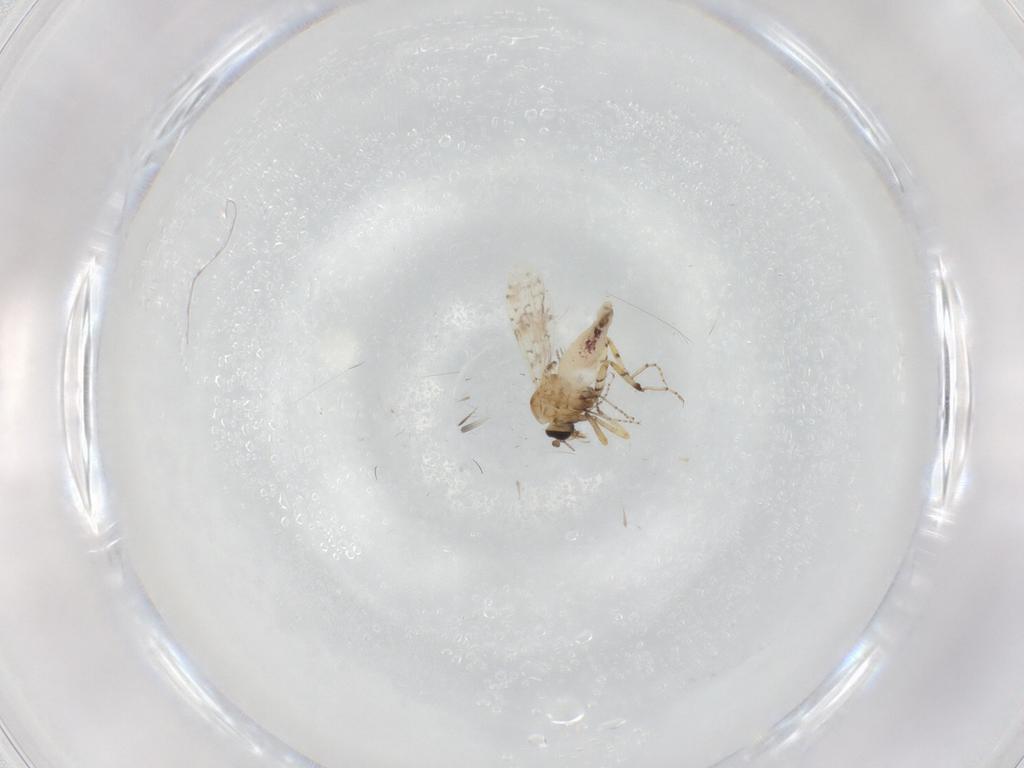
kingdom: Animalia
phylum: Arthropoda
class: Insecta
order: Diptera
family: Ceratopogonidae
